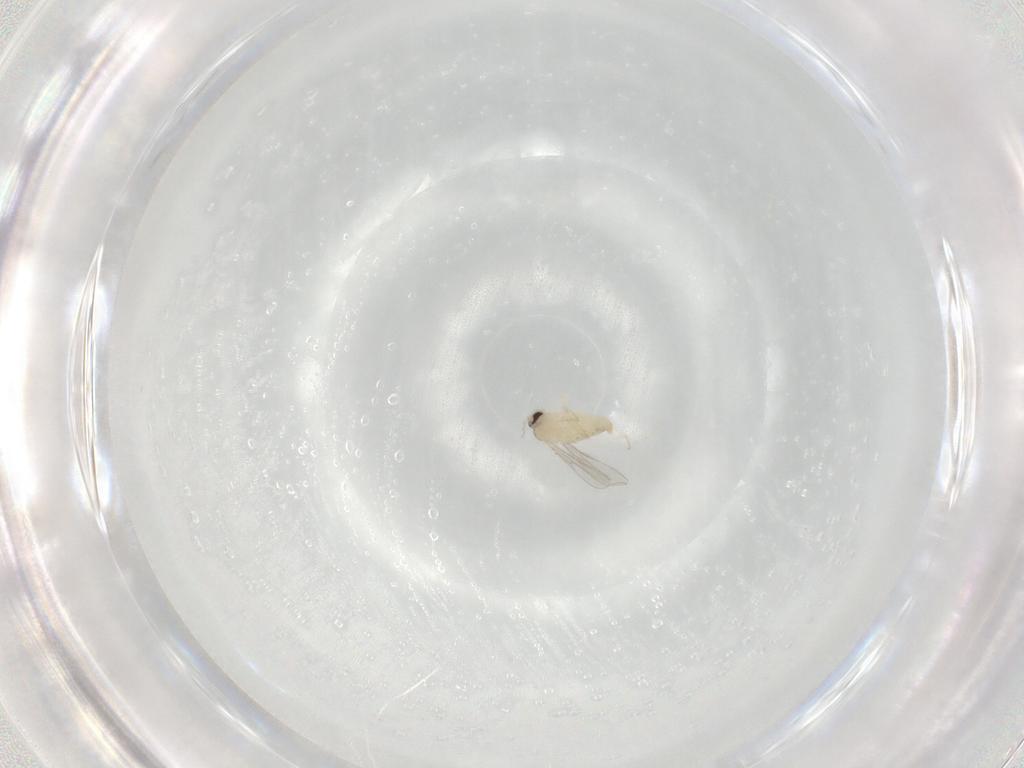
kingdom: Animalia
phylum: Arthropoda
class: Insecta
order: Diptera
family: Cecidomyiidae
